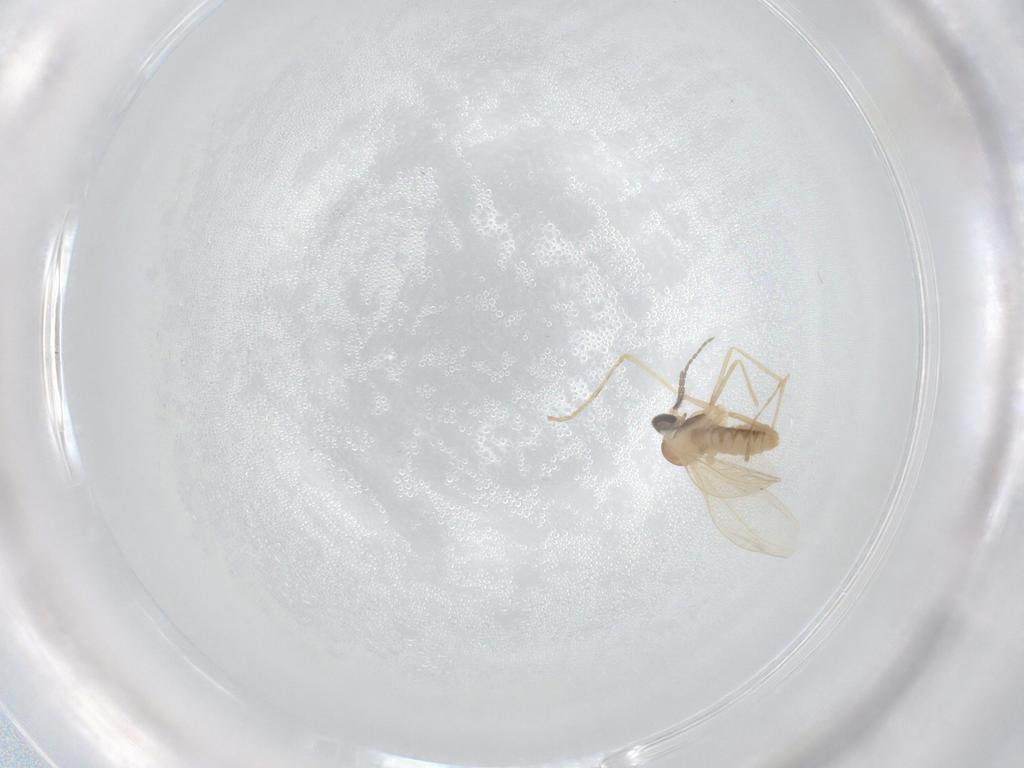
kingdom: Animalia
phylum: Arthropoda
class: Insecta
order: Diptera
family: Cecidomyiidae
